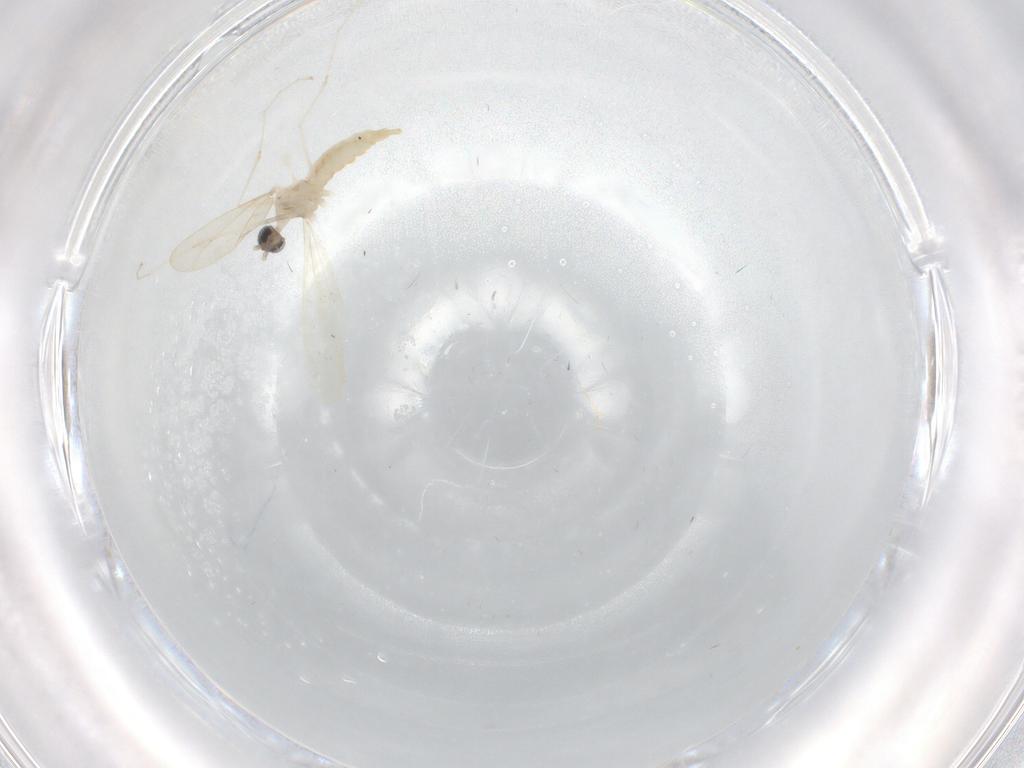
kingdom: Animalia
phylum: Arthropoda
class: Insecta
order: Diptera
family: Cecidomyiidae
